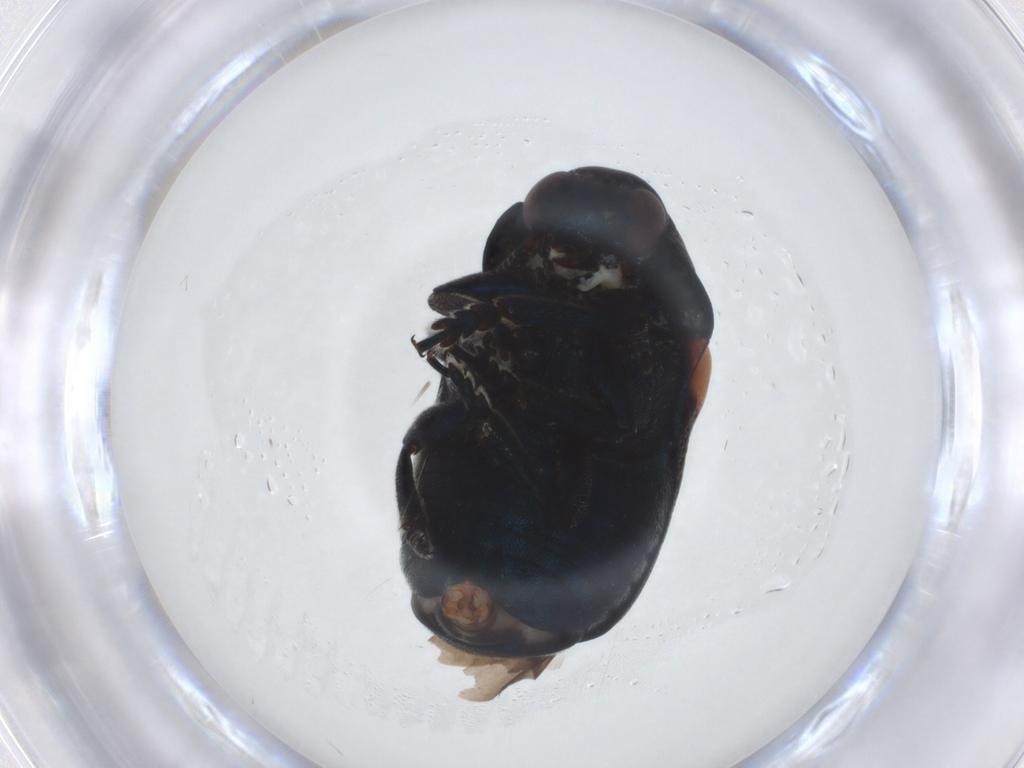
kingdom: Animalia
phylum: Arthropoda
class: Insecta
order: Coleoptera
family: Chrysomelidae
